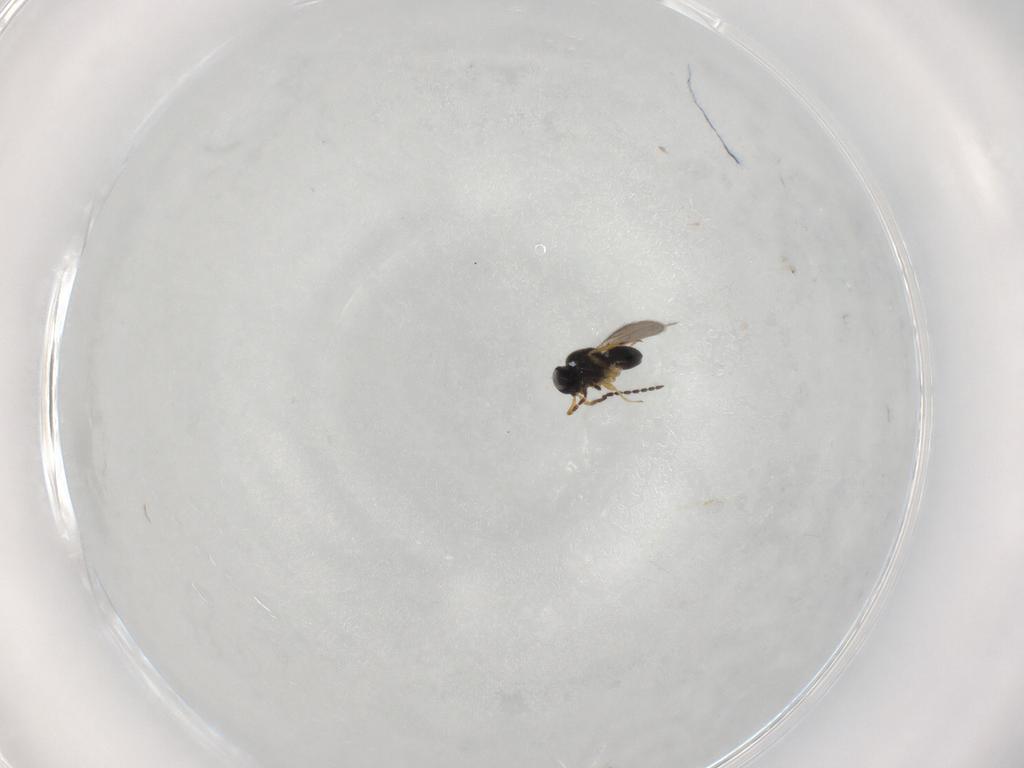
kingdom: Animalia
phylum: Arthropoda
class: Insecta
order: Hymenoptera
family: Scelionidae
